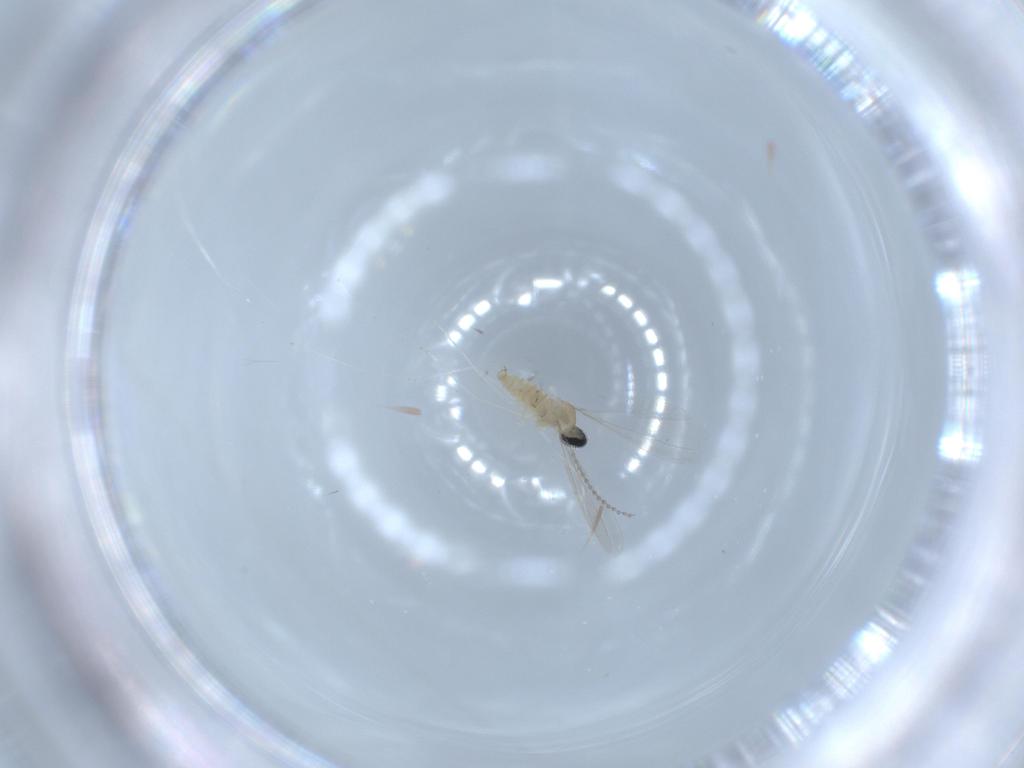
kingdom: Animalia
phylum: Arthropoda
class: Insecta
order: Diptera
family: Cecidomyiidae
